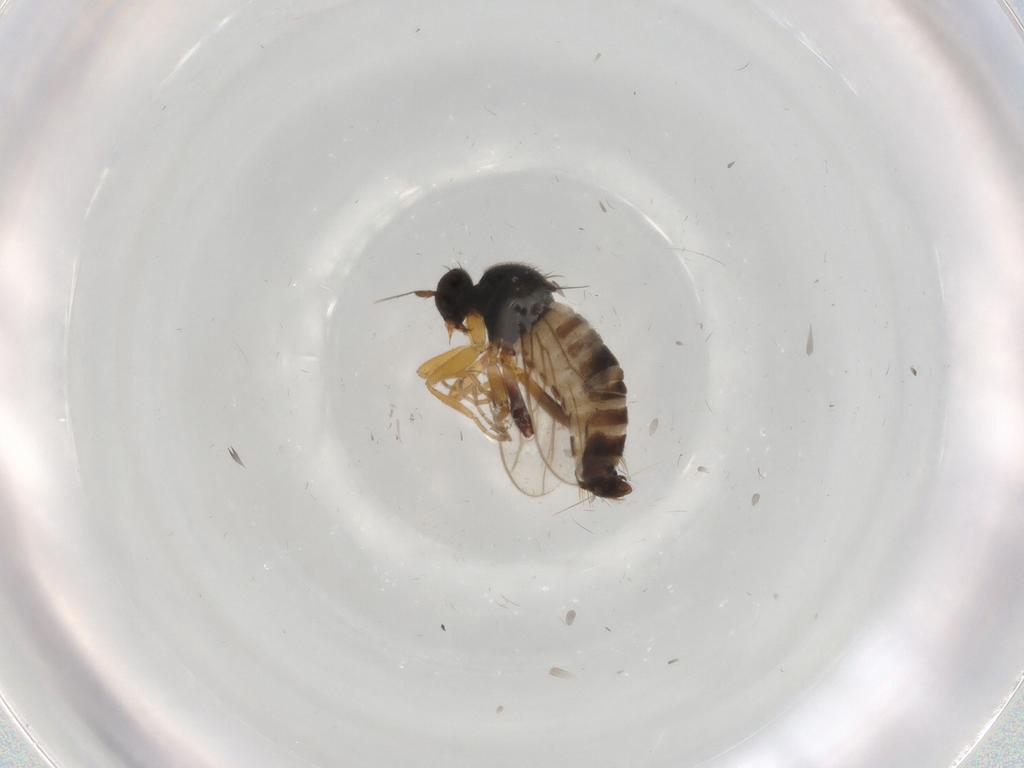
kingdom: Animalia
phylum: Arthropoda
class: Insecta
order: Diptera
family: Hybotidae
